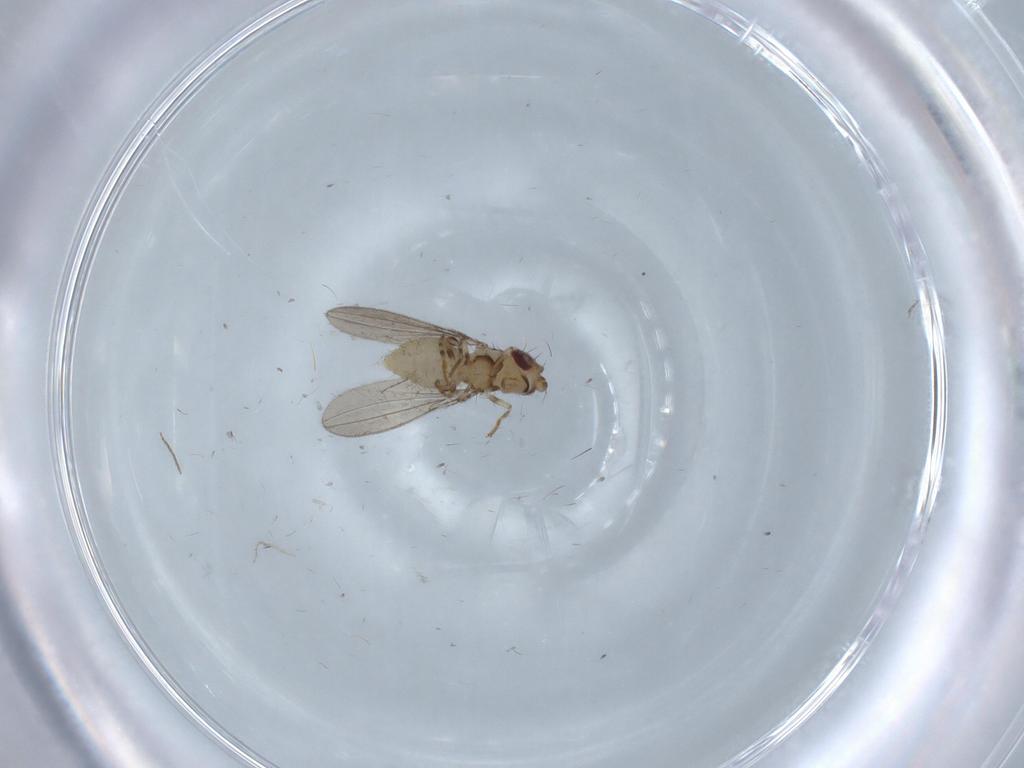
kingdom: Animalia
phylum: Arthropoda
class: Insecta
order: Diptera
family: Asteiidae
